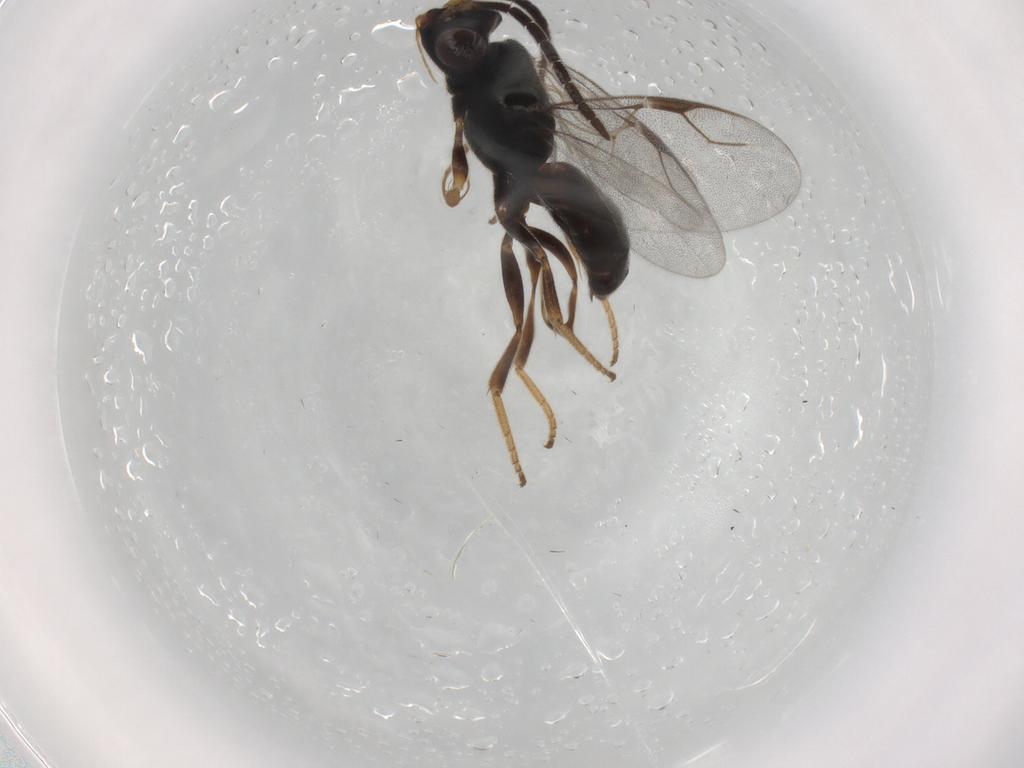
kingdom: Animalia
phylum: Arthropoda
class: Insecta
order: Hymenoptera
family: Dryinidae
